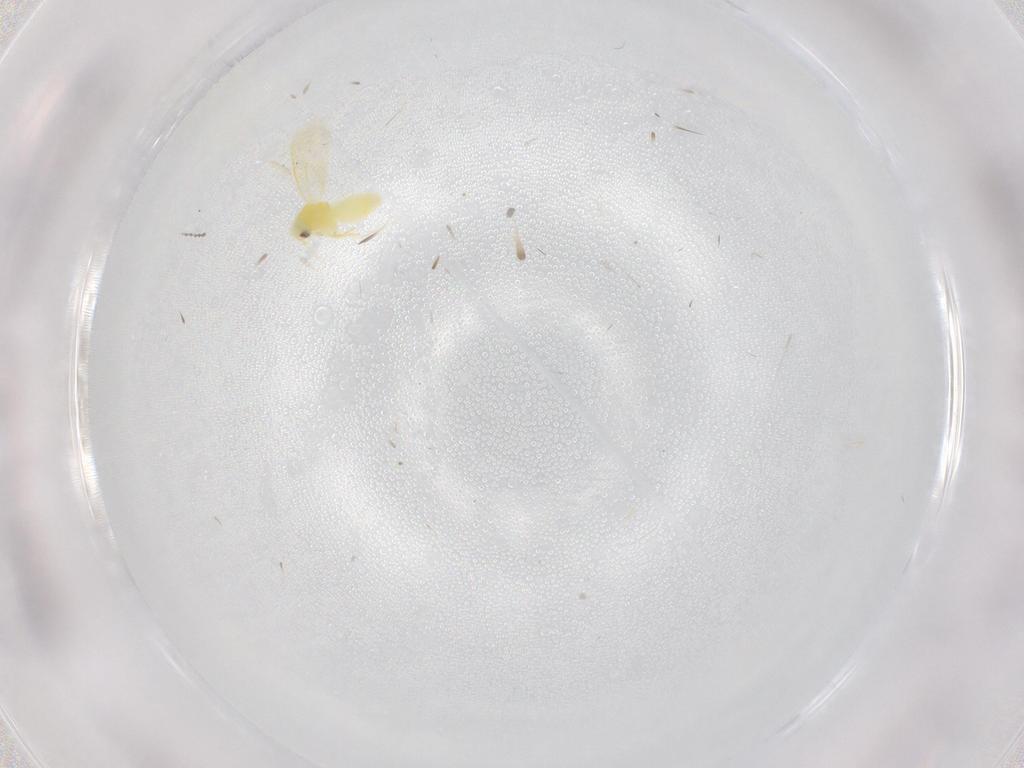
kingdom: Animalia
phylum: Arthropoda
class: Insecta
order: Hemiptera
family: Aleyrodidae
